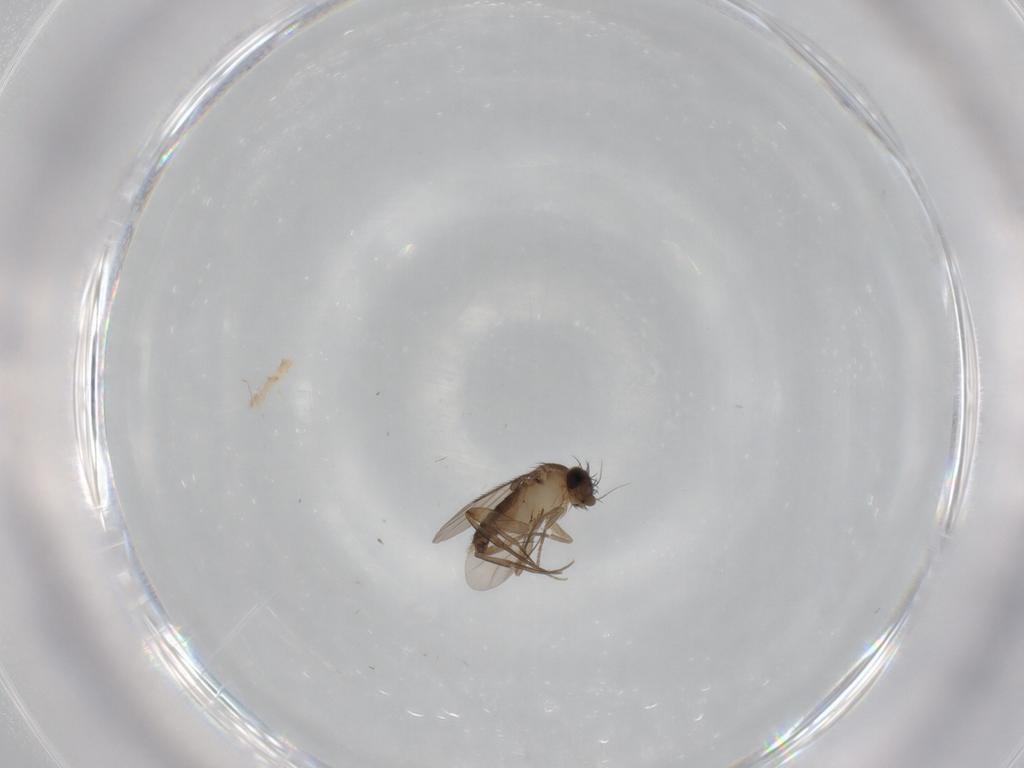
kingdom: Animalia
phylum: Arthropoda
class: Insecta
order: Diptera
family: Phoridae
